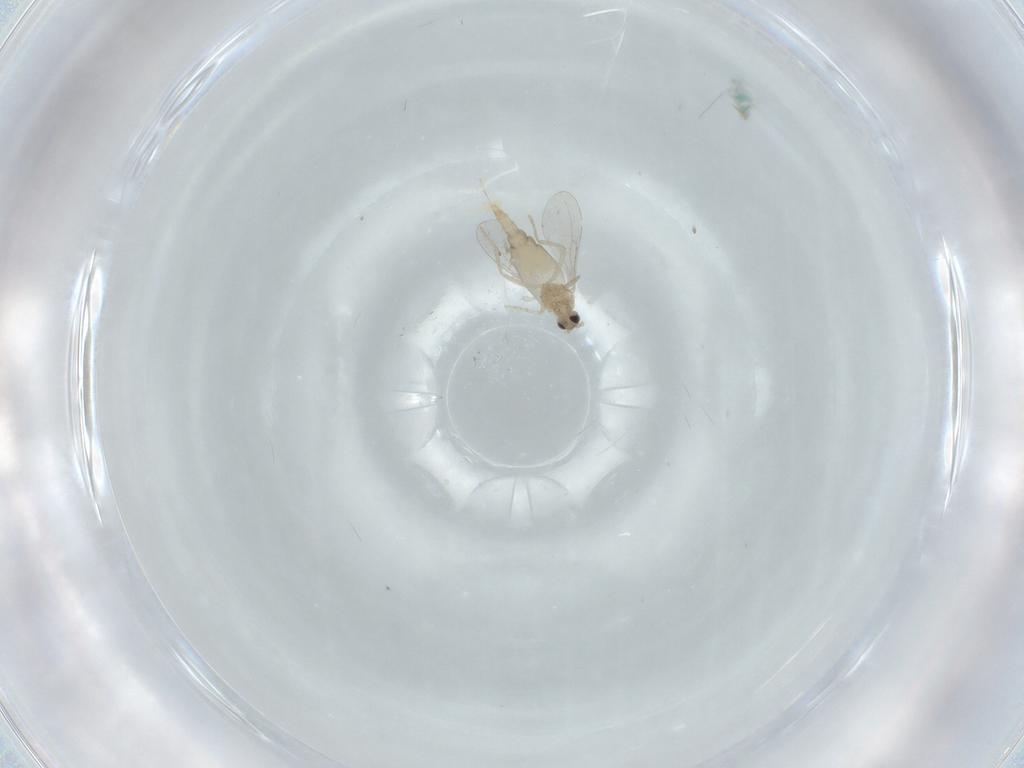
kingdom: Animalia
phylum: Arthropoda
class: Insecta
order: Diptera
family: Cecidomyiidae
